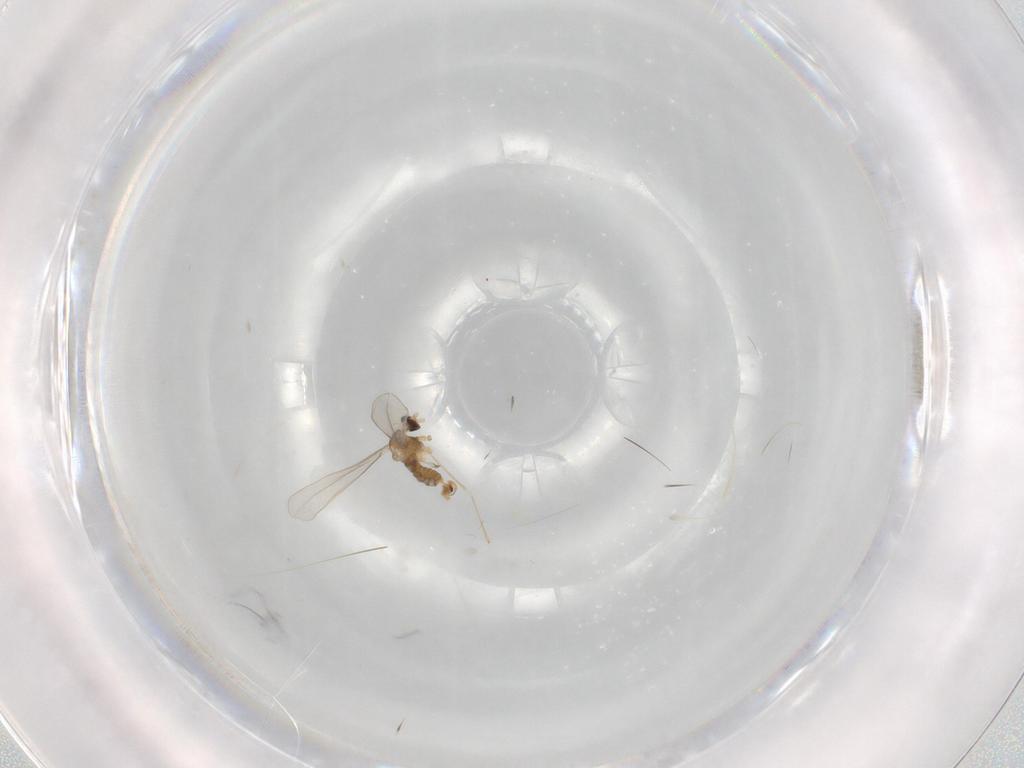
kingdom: Animalia
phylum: Arthropoda
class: Insecta
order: Diptera
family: Cecidomyiidae
